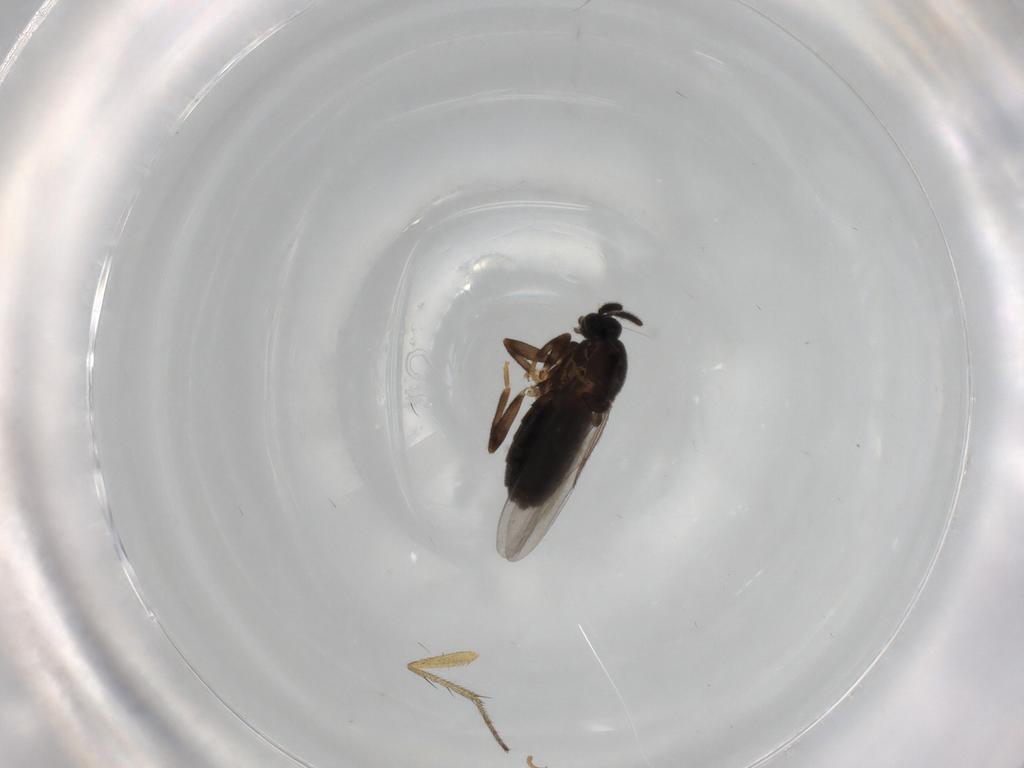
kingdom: Animalia
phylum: Arthropoda
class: Insecta
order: Diptera
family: Scatopsidae
